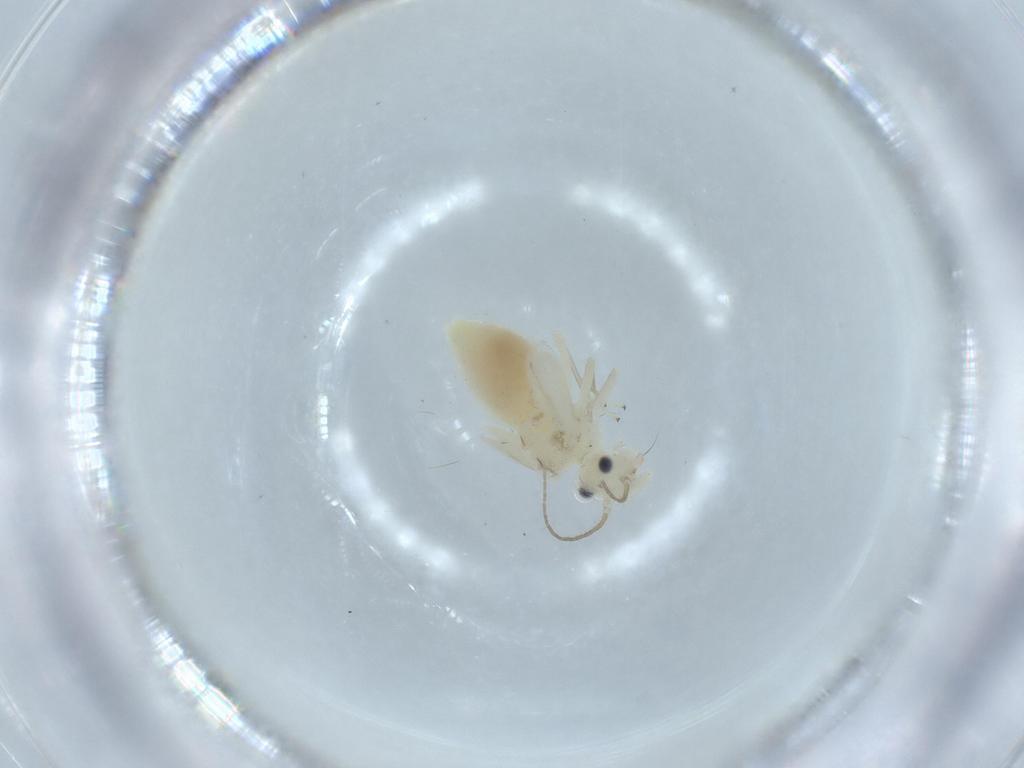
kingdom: Animalia
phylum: Arthropoda
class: Insecta
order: Psocodea
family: Caeciliusidae
